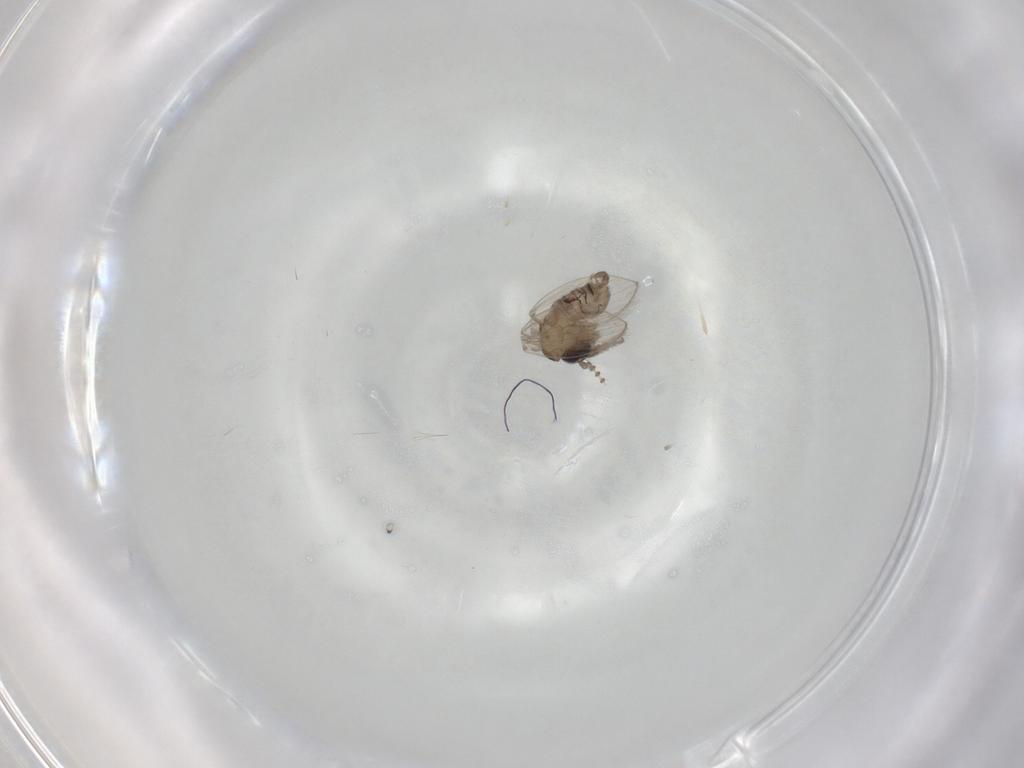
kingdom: Animalia
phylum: Arthropoda
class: Insecta
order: Diptera
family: Psychodidae
